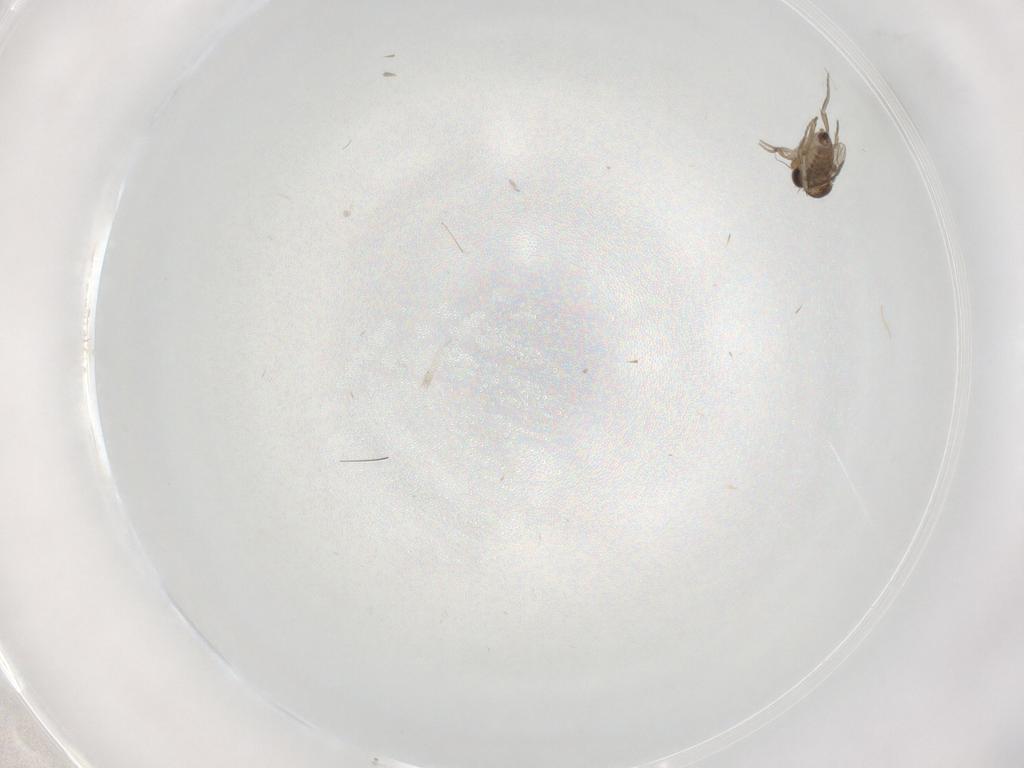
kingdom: Animalia
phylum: Arthropoda
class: Insecta
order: Diptera
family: Phoridae
